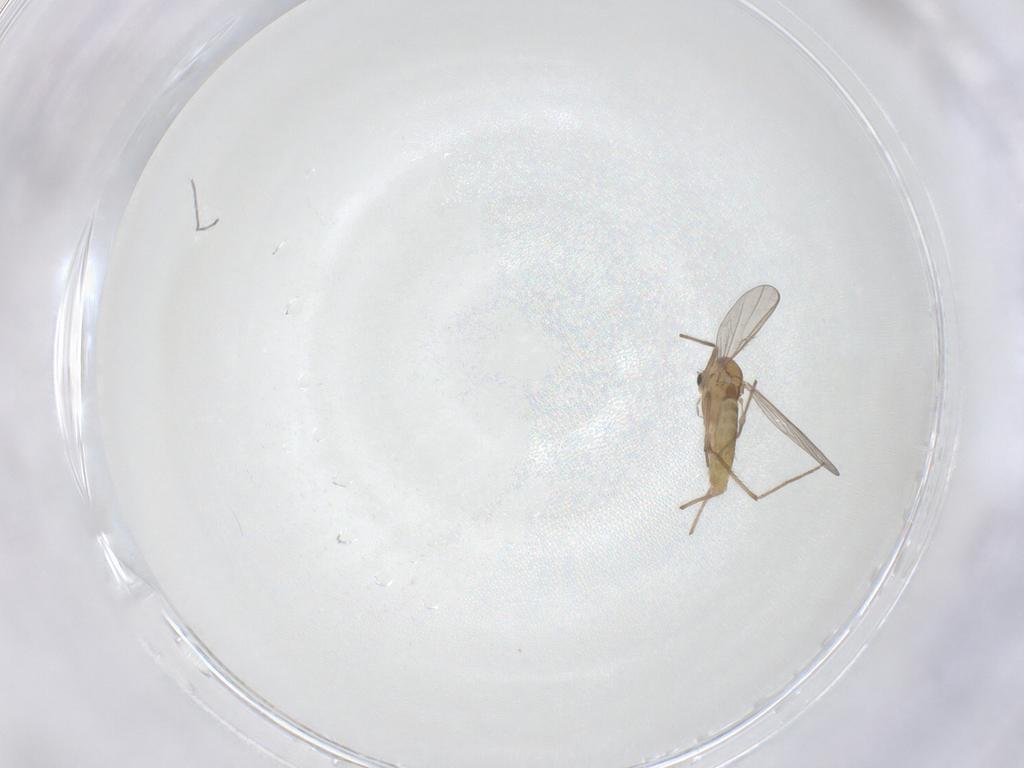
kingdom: Animalia
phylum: Arthropoda
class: Insecta
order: Diptera
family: Chironomidae
